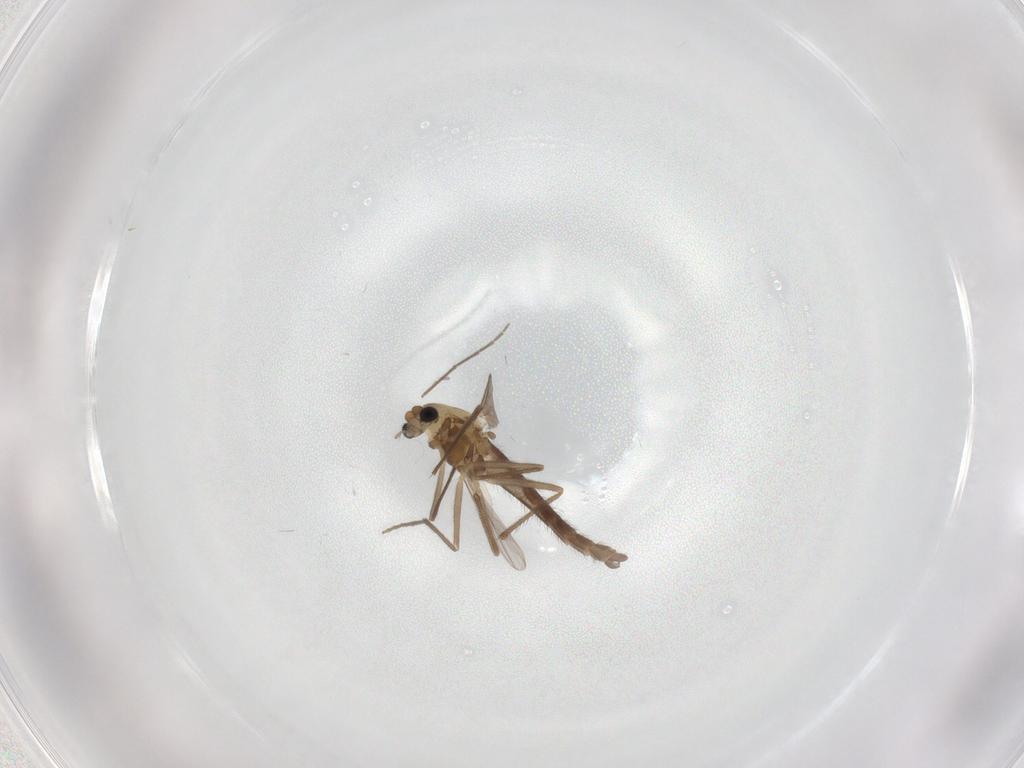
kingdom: Animalia
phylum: Arthropoda
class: Insecta
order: Diptera
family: Chironomidae
